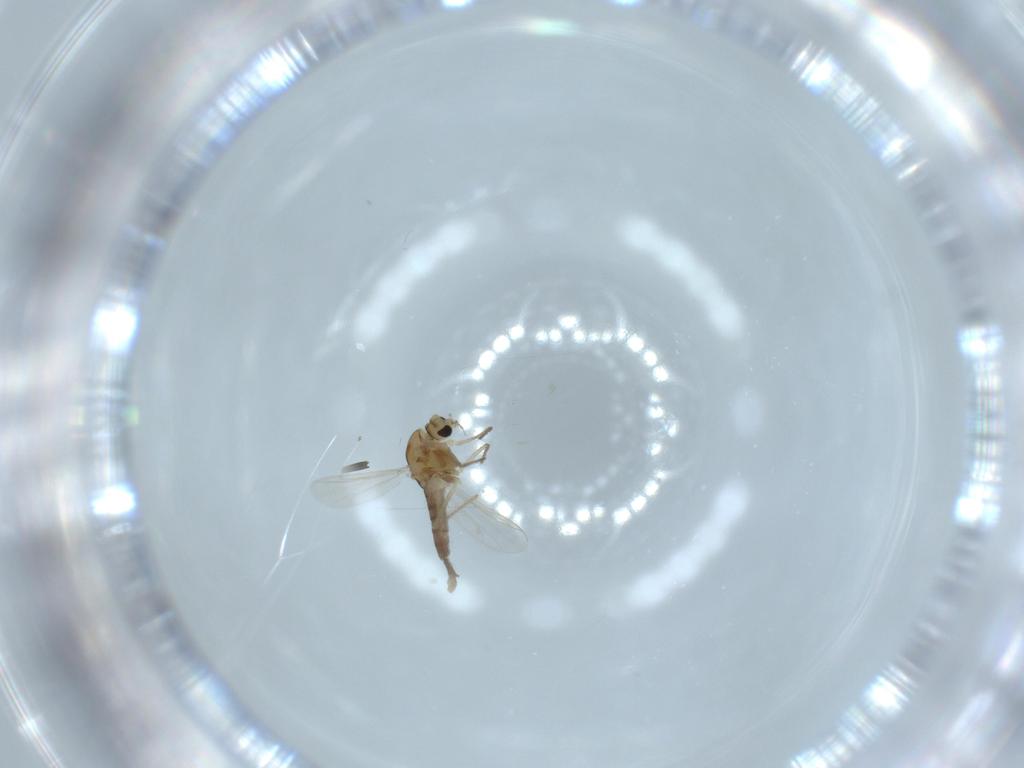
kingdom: Animalia
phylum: Arthropoda
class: Insecta
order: Diptera
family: Chironomidae
